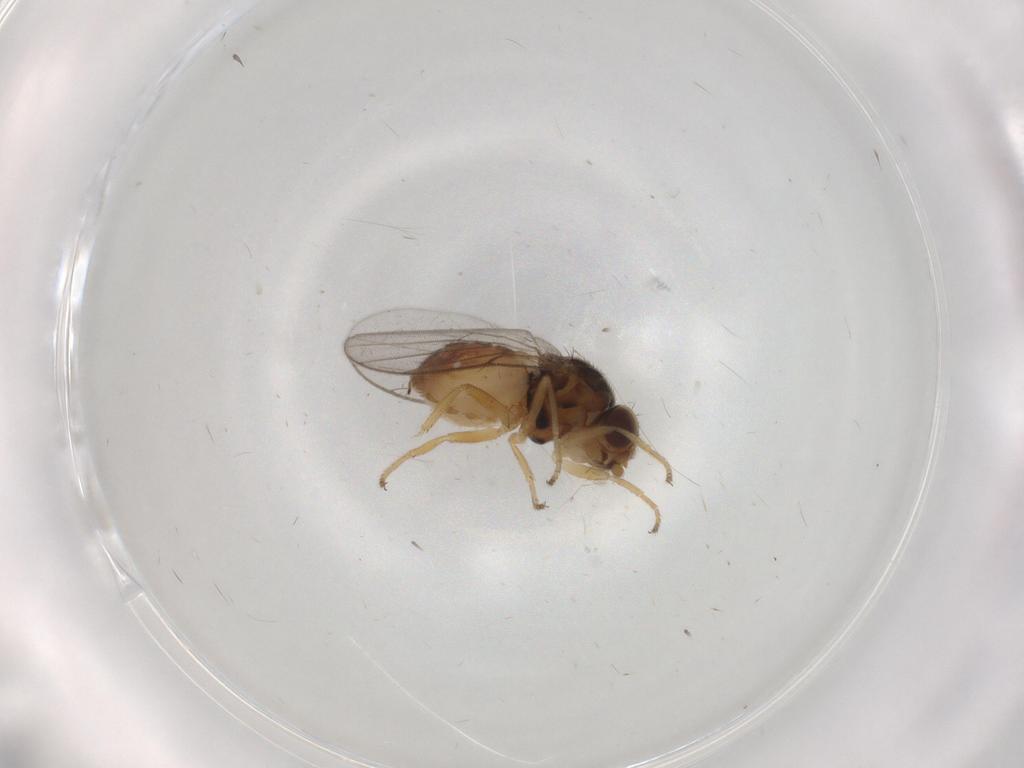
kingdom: Animalia
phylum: Arthropoda
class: Insecta
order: Diptera
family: Chloropidae
